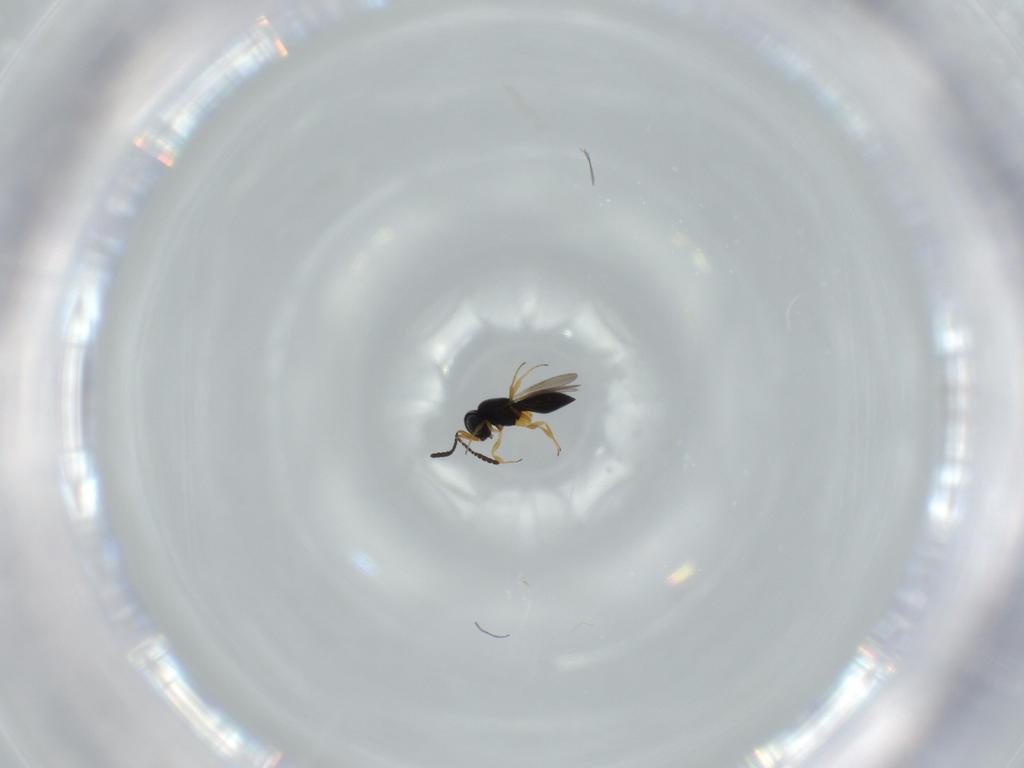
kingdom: Animalia
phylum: Arthropoda
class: Insecta
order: Hymenoptera
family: Scelionidae
